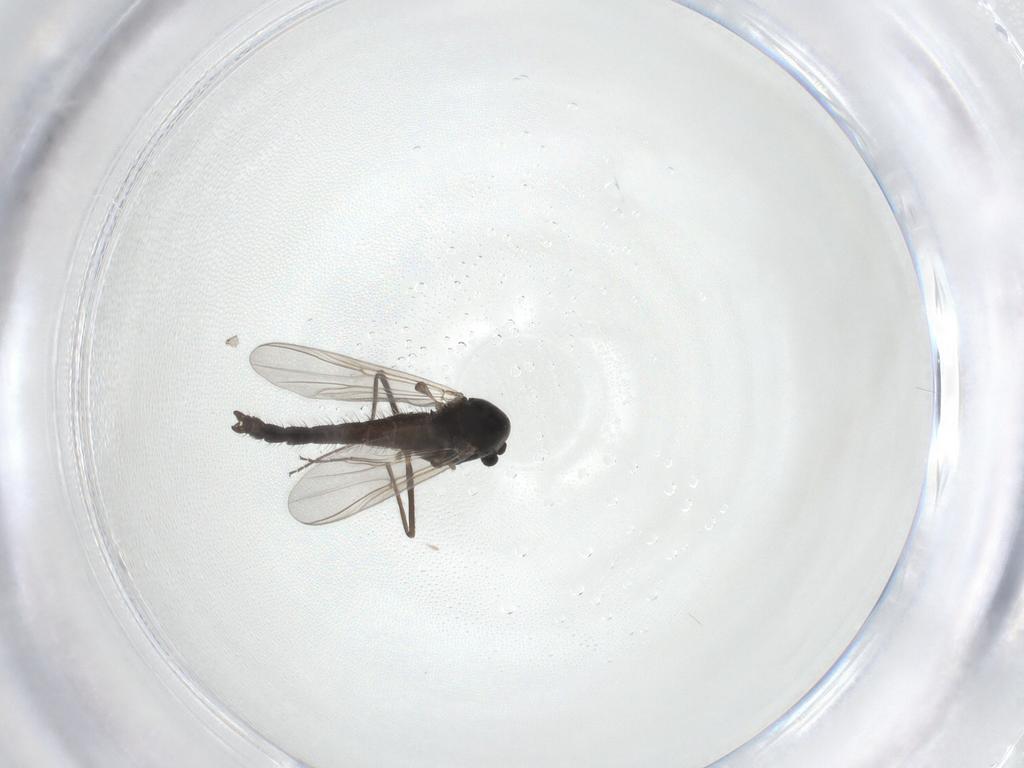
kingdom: Animalia
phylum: Arthropoda
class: Insecta
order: Diptera
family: Chironomidae
